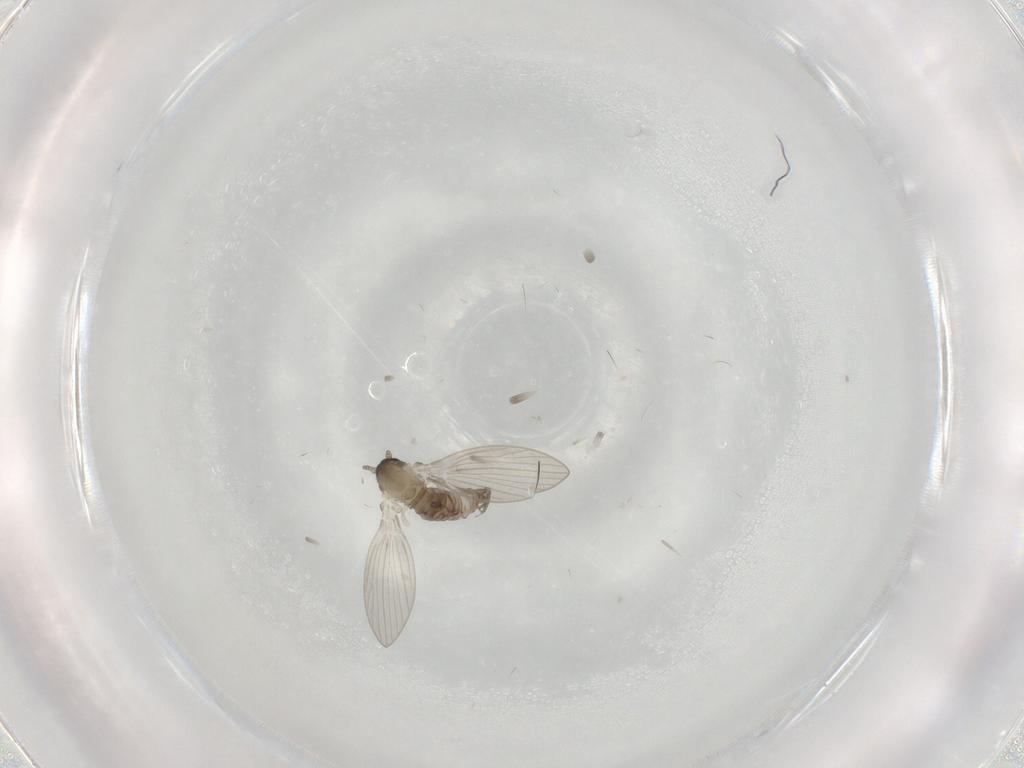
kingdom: Animalia
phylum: Arthropoda
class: Insecta
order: Diptera
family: Psychodidae
